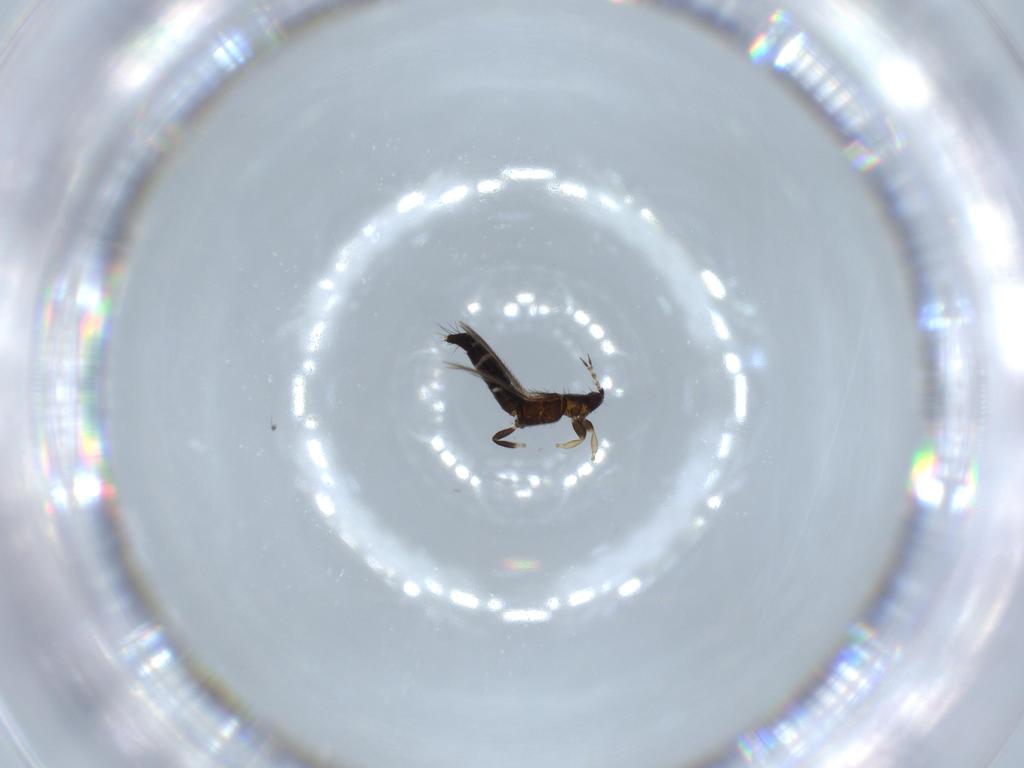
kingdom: Animalia
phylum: Arthropoda
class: Insecta
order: Thysanoptera
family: Thripidae
